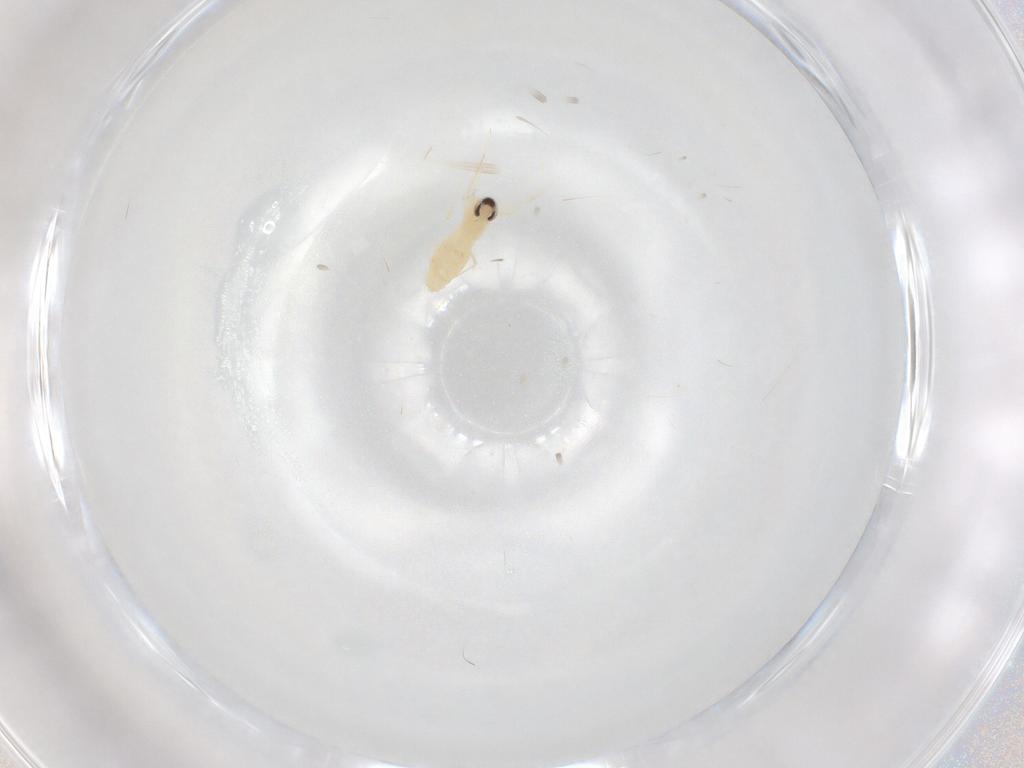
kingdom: Animalia
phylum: Arthropoda
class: Insecta
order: Diptera
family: Cecidomyiidae
